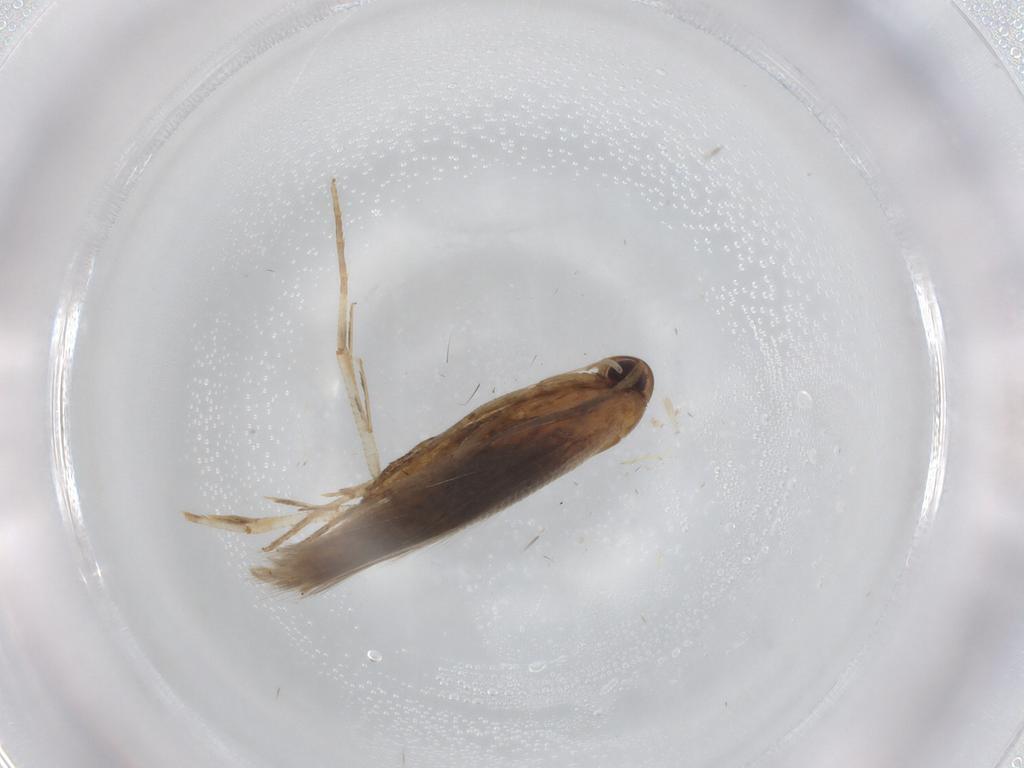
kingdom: Animalia
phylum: Arthropoda
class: Insecta
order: Lepidoptera
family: Cosmopterigidae
